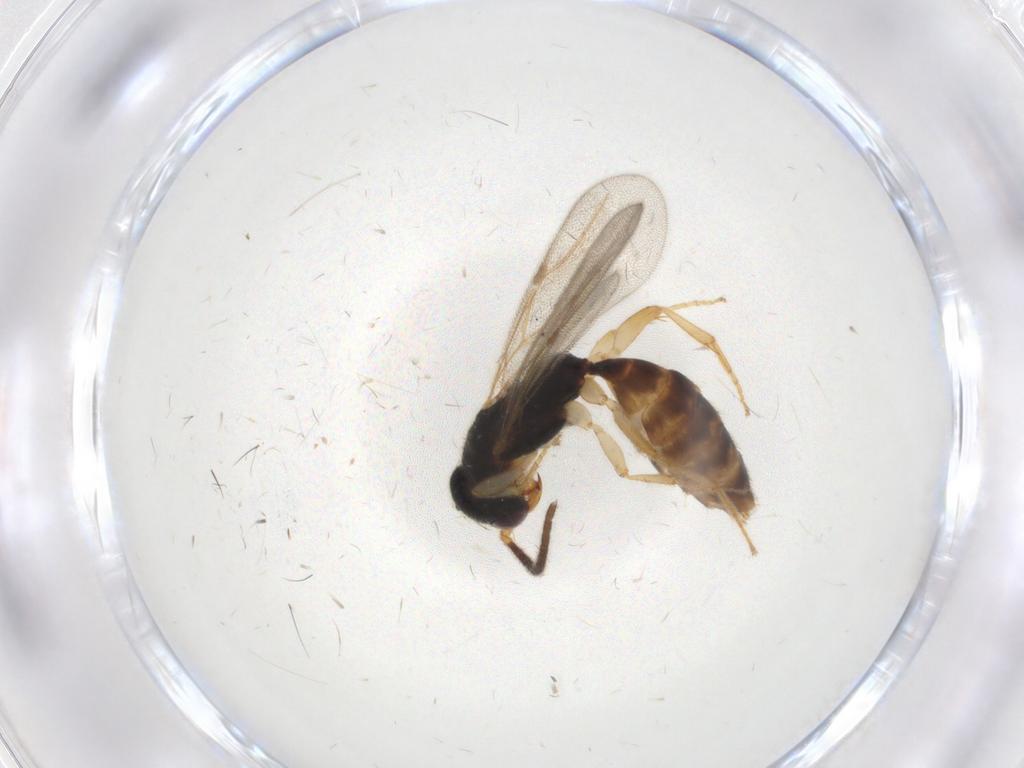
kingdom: Animalia
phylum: Arthropoda
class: Insecta
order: Hymenoptera
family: Bethylidae
